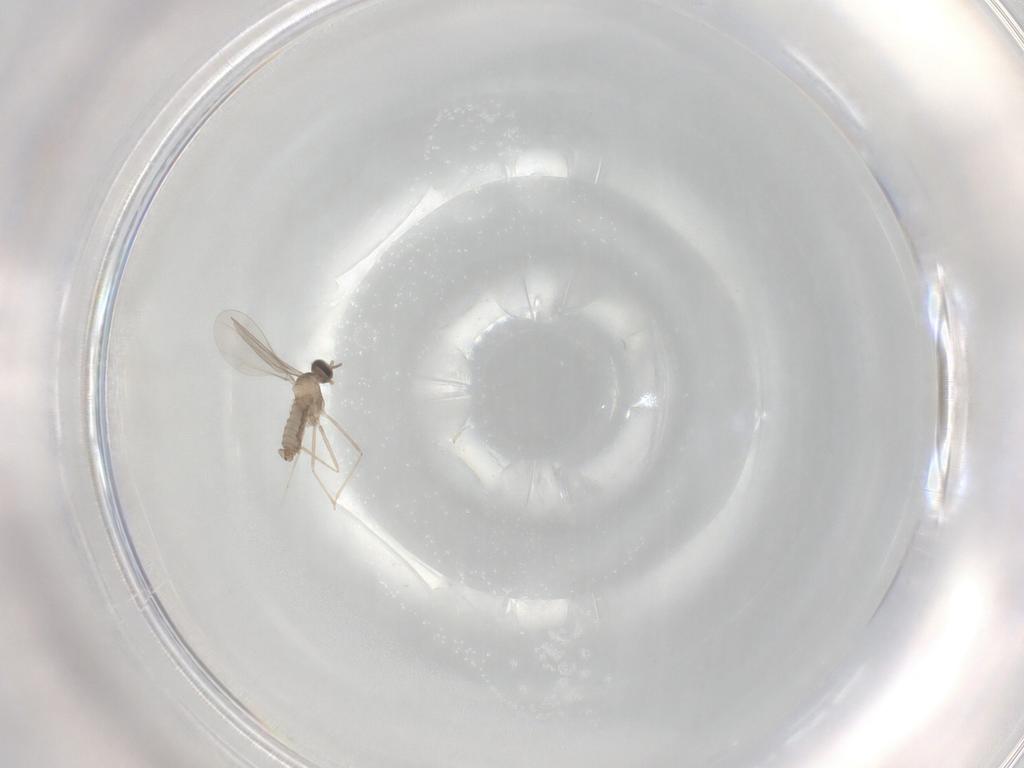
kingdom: Animalia
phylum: Arthropoda
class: Insecta
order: Diptera
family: Cecidomyiidae
